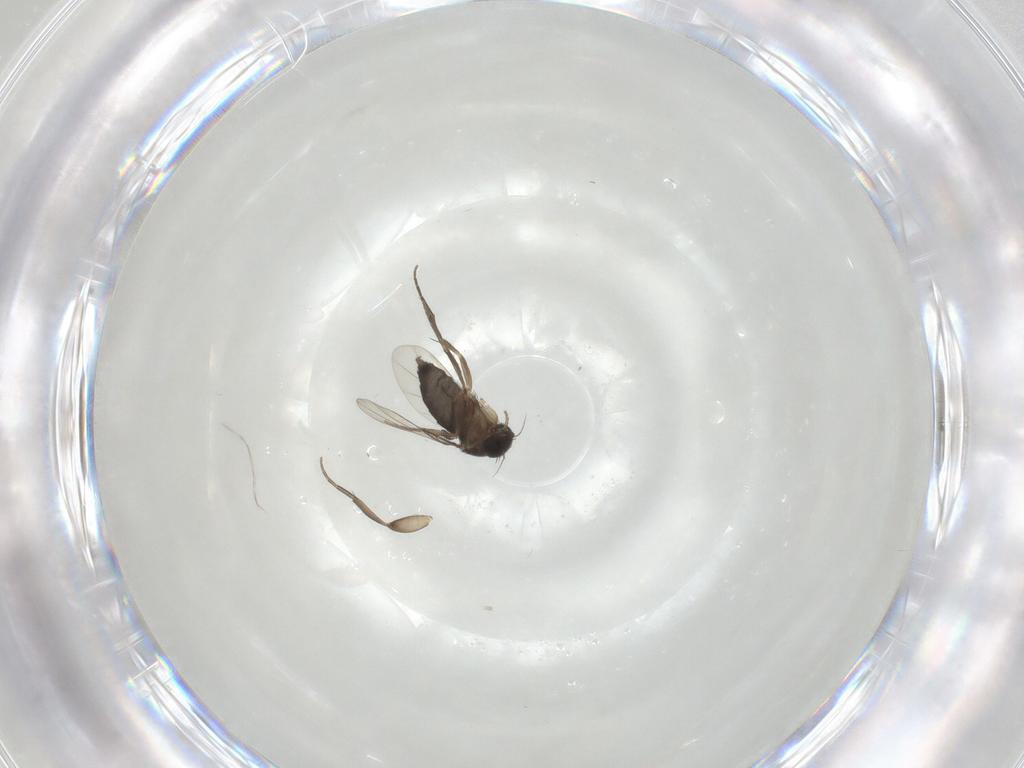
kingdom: Animalia
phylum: Arthropoda
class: Insecta
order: Diptera
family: Phoridae
